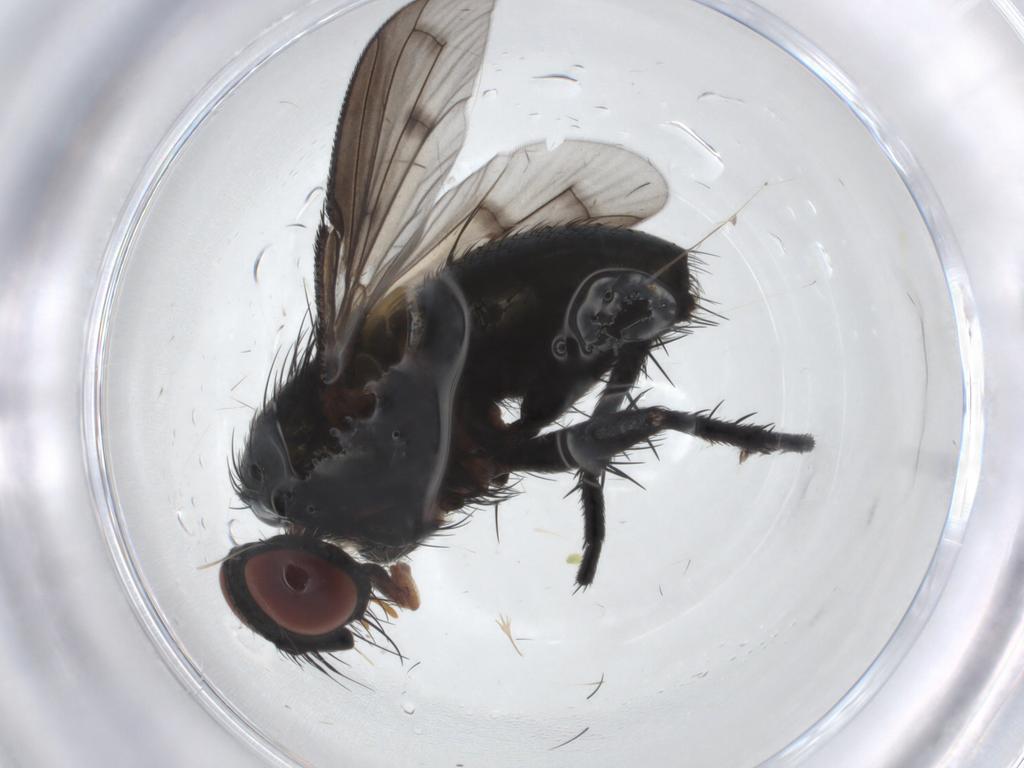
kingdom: Animalia
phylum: Arthropoda
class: Insecta
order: Diptera
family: Tachinidae
